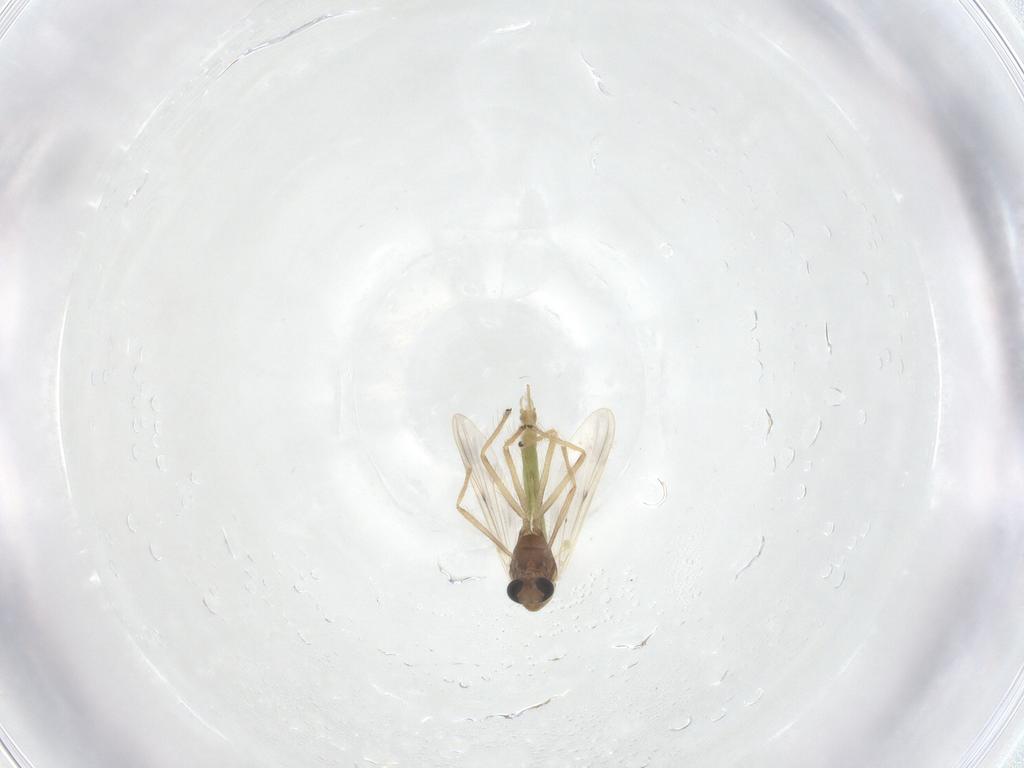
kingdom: Animalia
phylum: Arthropoda
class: Insecta
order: Diptera
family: Chironomidae
